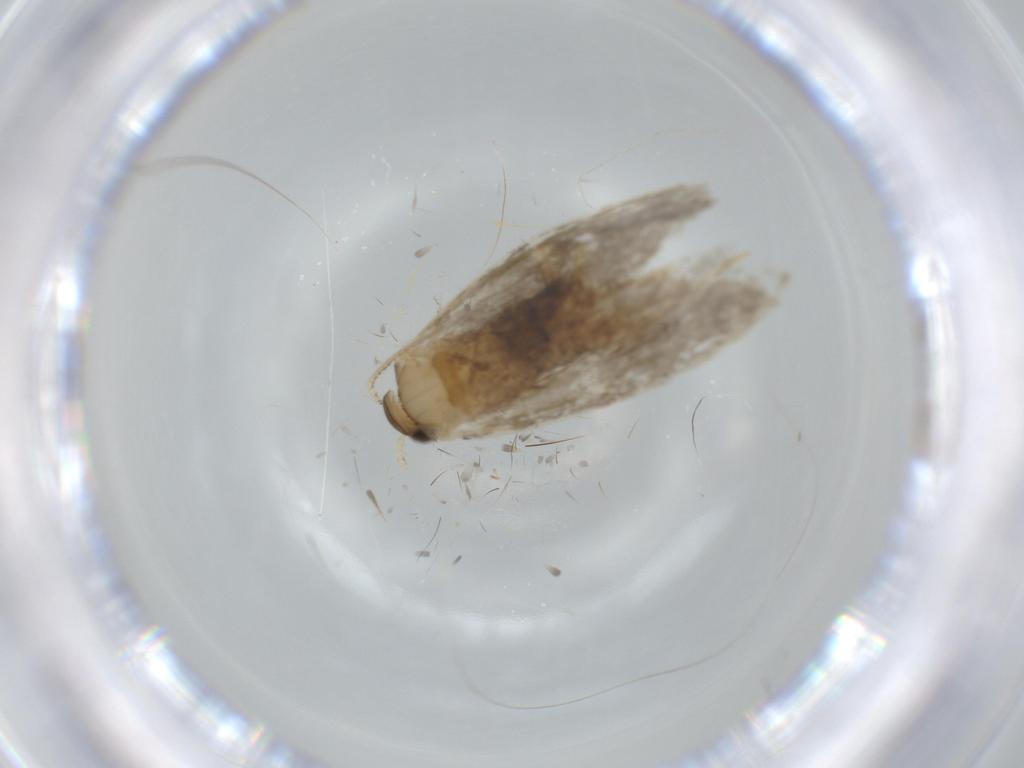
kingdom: Animalia
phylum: Arthropoda
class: Insecta
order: Lepidoptera
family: Tineidae
